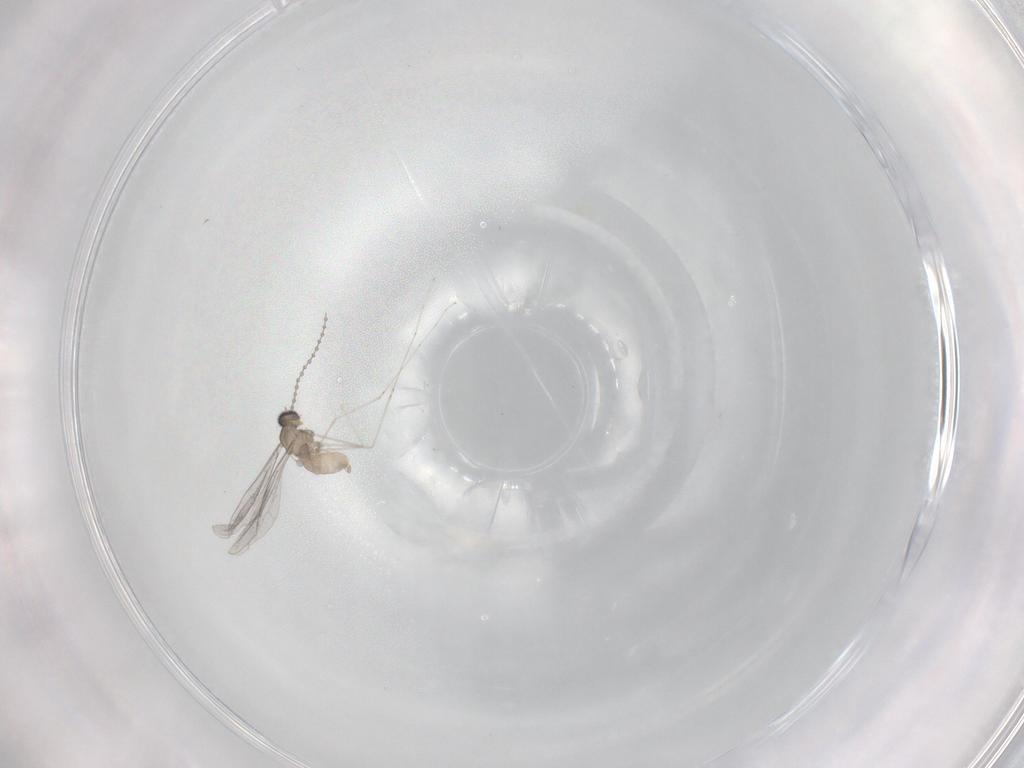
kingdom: Animalia
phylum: Arthropoda
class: Insecta
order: Diptera
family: Cecidomyiidae
